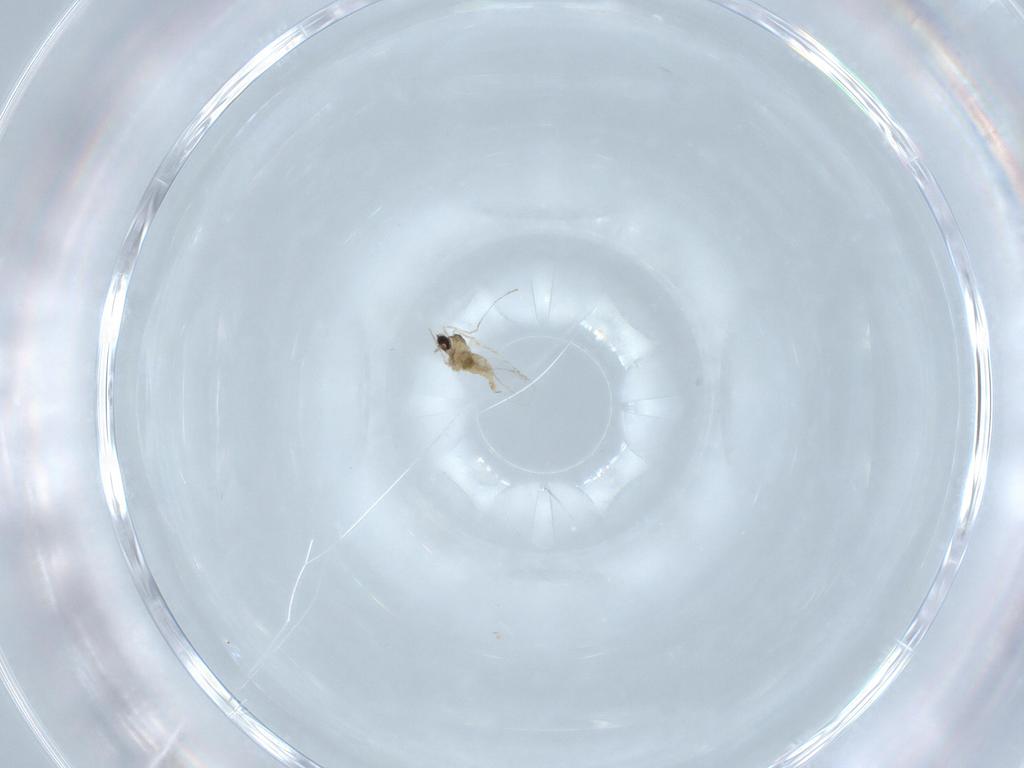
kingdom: Animalia
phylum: Arthropoda
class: Insecta
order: Diptera
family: Cecidomyiidae
